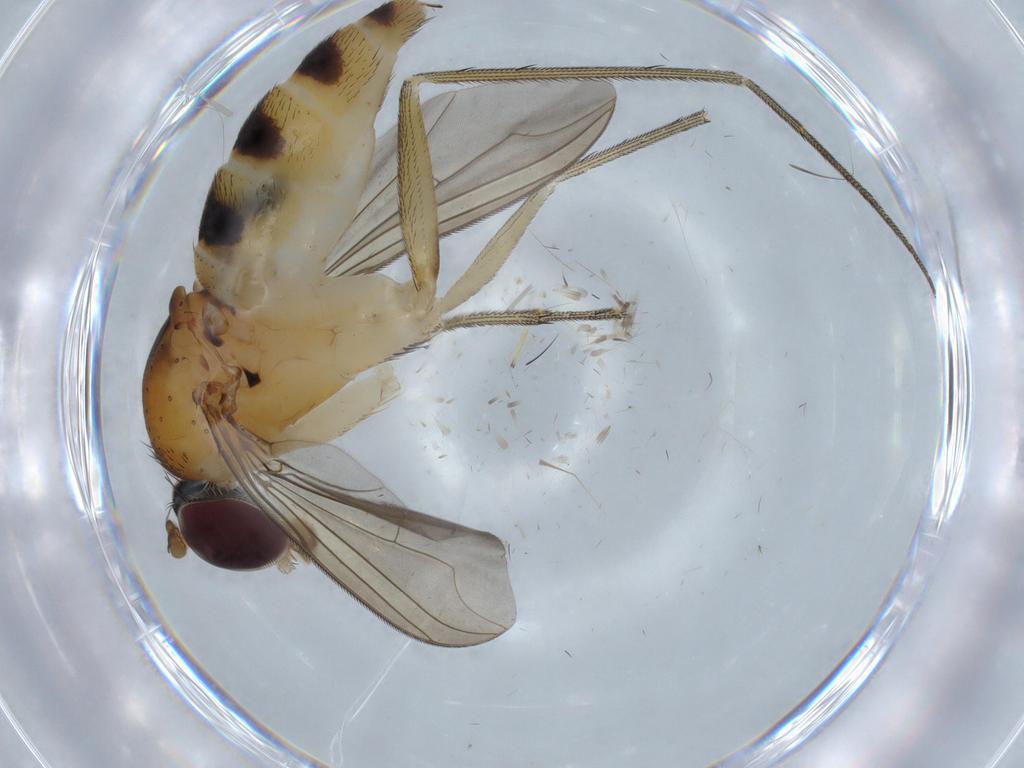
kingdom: Animalia
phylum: Arthropoda
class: Insecta
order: Diptera
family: Dolichopodidae
